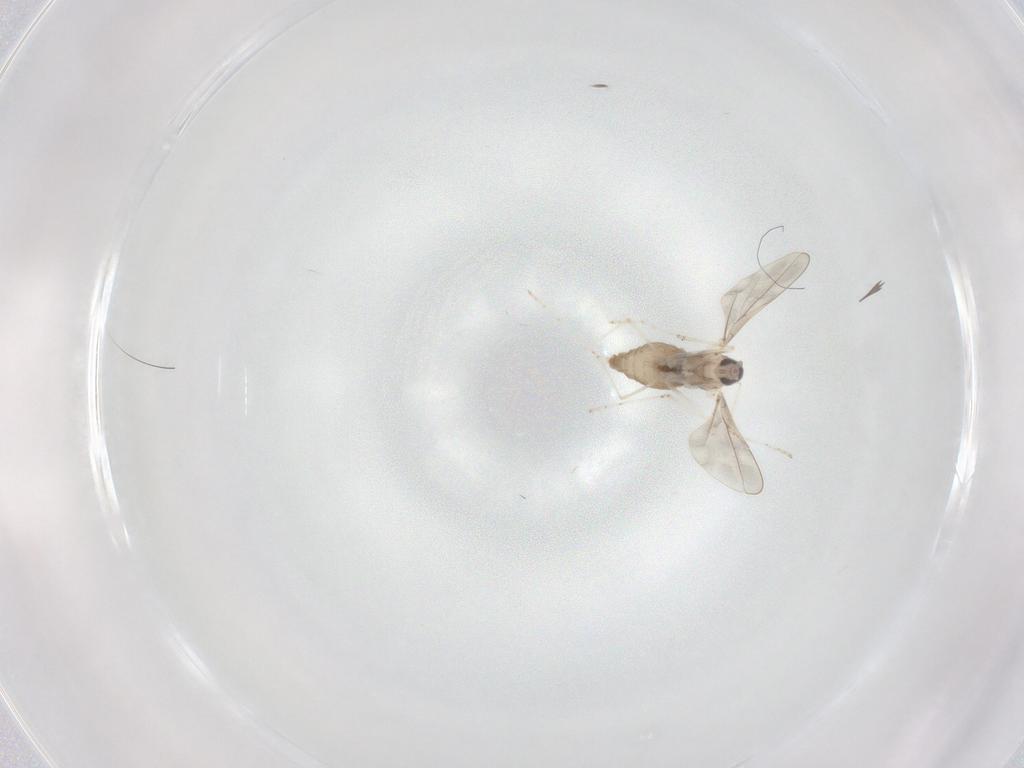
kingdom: Animalia
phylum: Arthropoda
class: Insecta
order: Diptera
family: Cecidomyiidae
